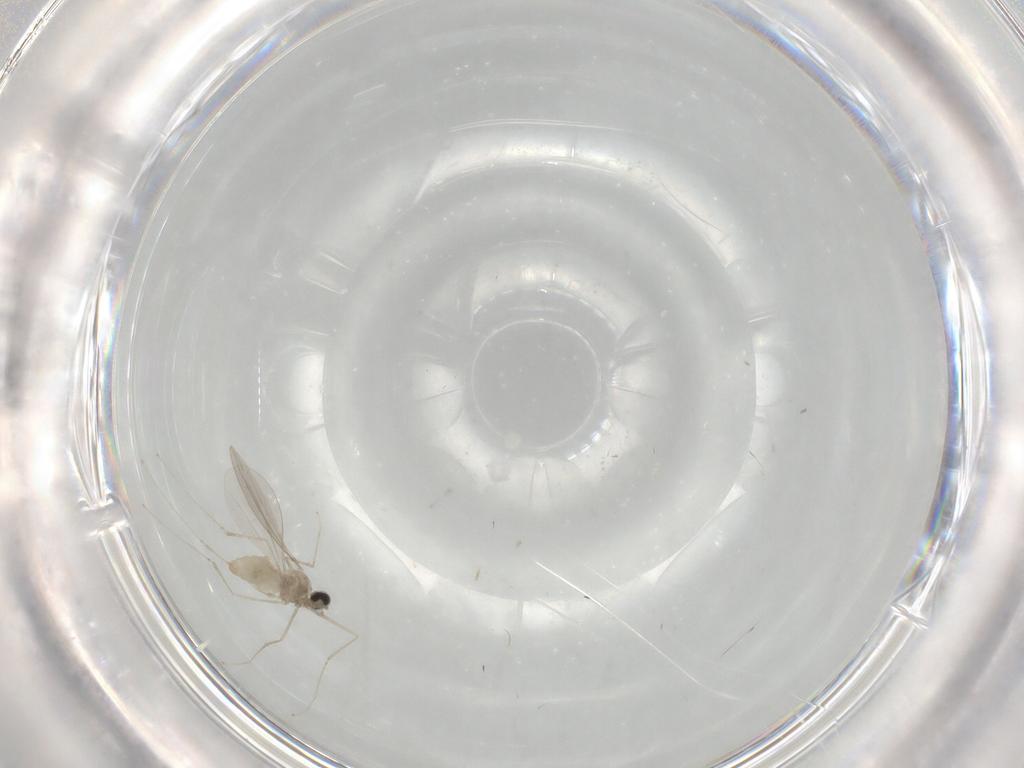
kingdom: Animalia
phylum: Arthropoda
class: Insecta
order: Diptera
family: Cecidomyiidae
